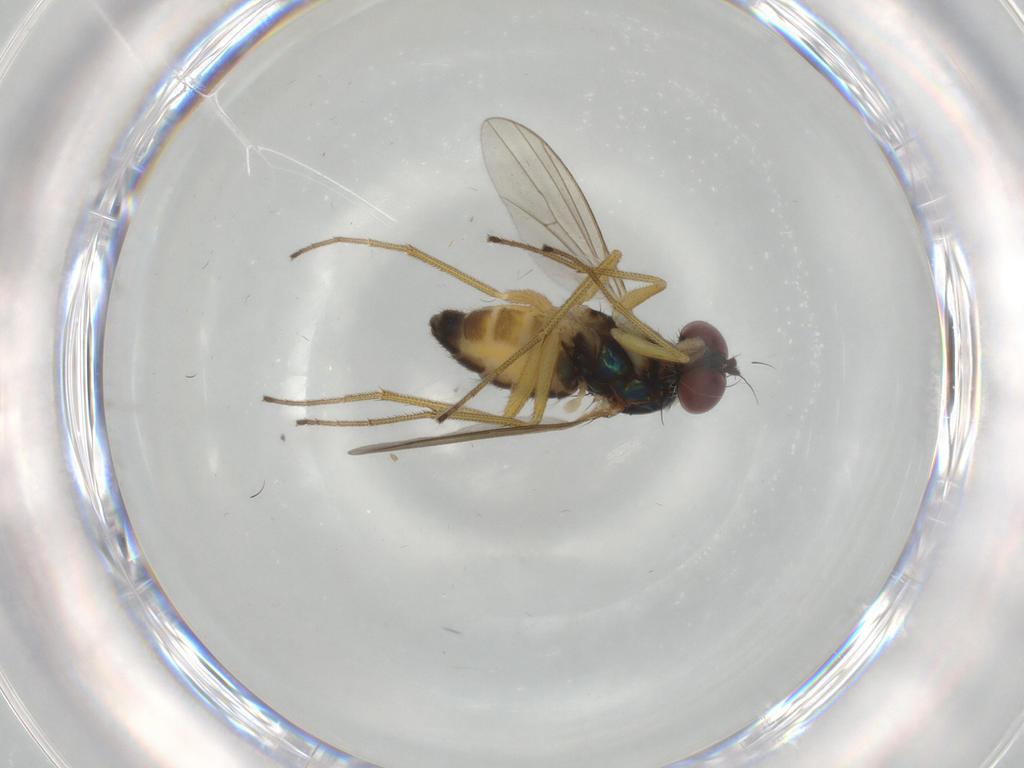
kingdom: Animalia
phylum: Arthropoda
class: Insecta
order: Diptera
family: Dolichopodidae
